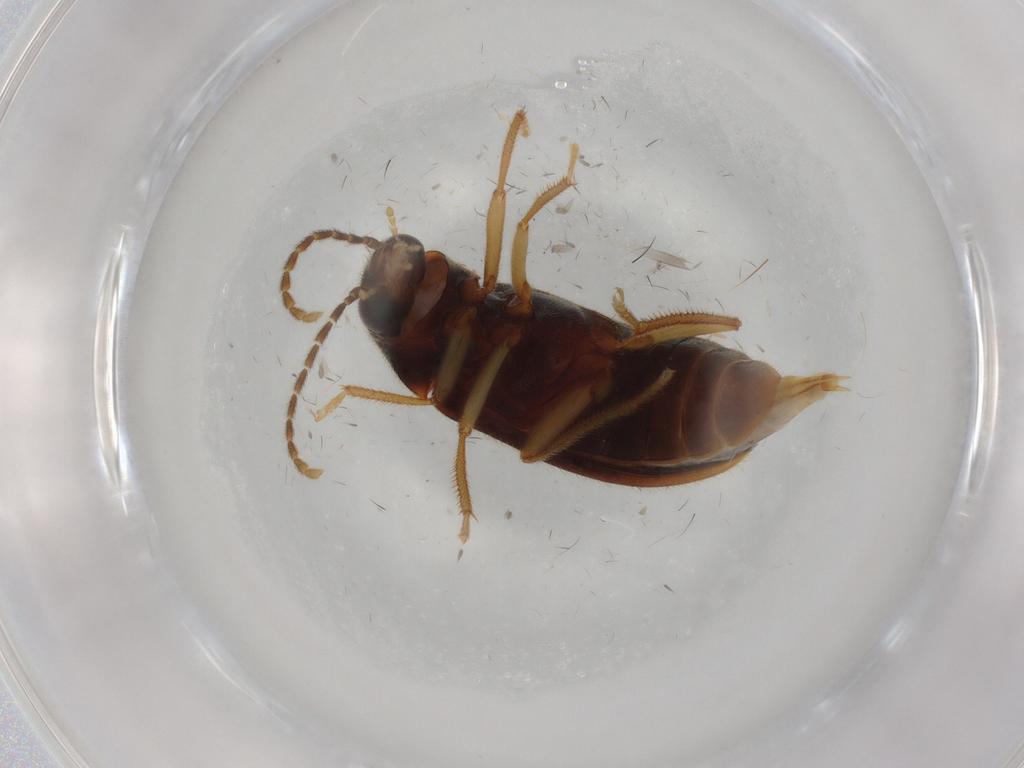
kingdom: Animalia
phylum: Arthropoda
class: Insecta
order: Coleoptera
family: Ptilodactylidae
